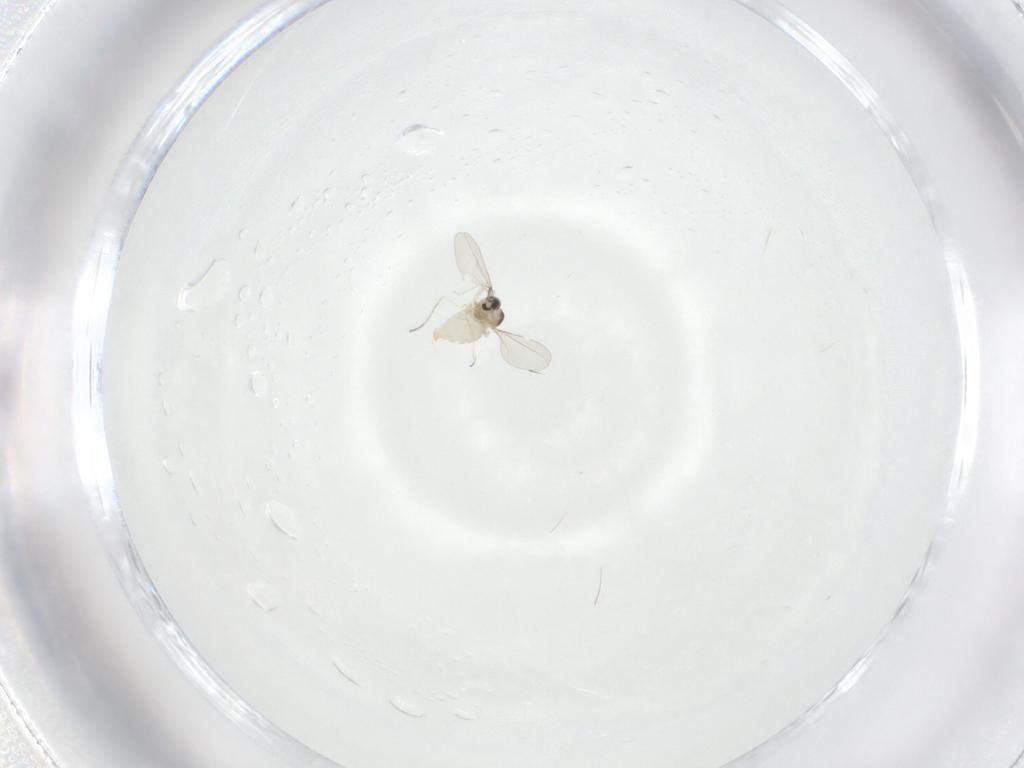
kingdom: Animalia
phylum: Arthropoda
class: Insecta
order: Diptera
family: Cecidomyiidae
